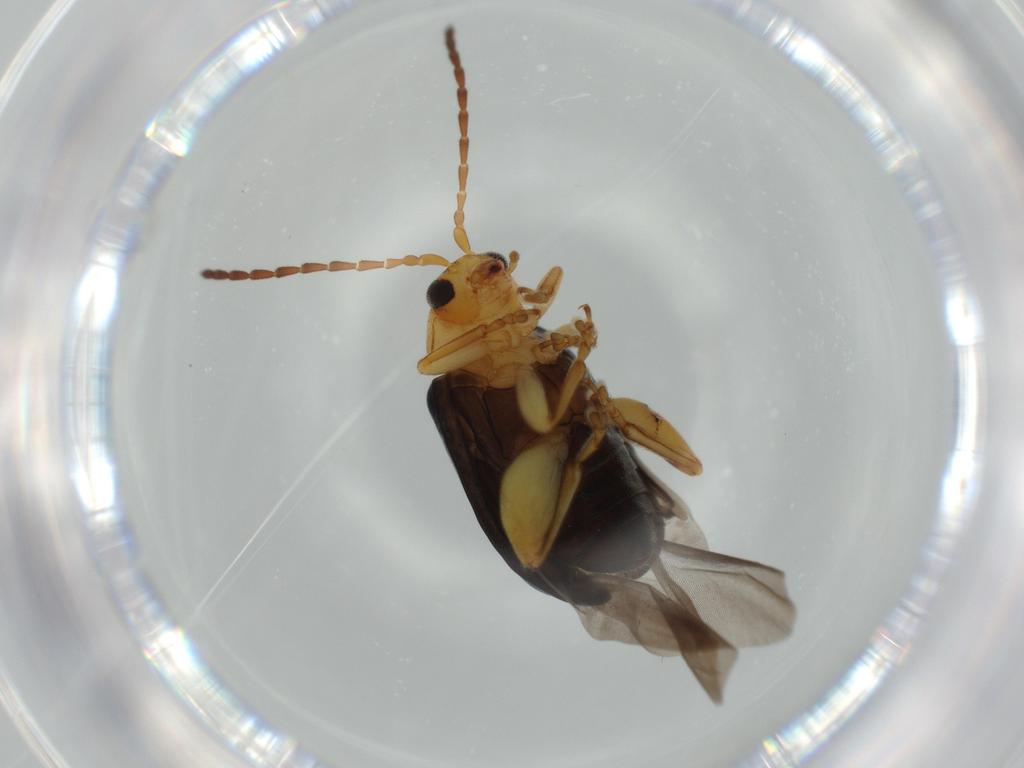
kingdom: Animalia
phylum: Arthropoda
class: Insecta
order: Coleoptera
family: Chrysomelidae
